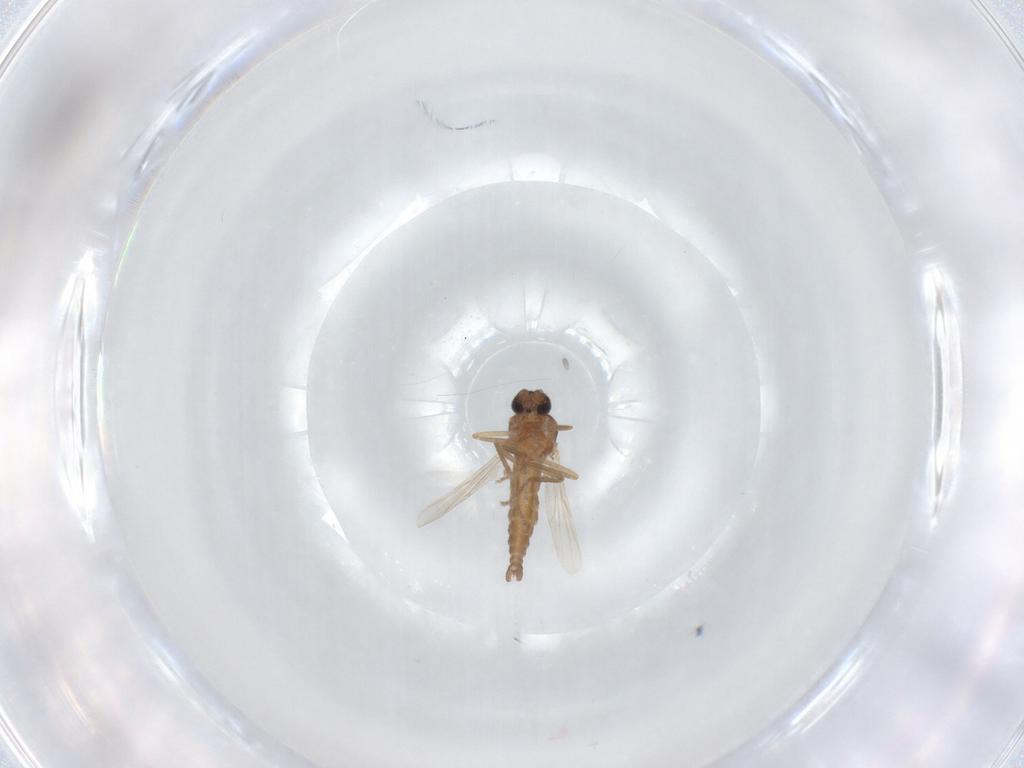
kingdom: Animalia
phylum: Arthropoda
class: Insecta
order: Diptera
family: Ceratopogonidae
